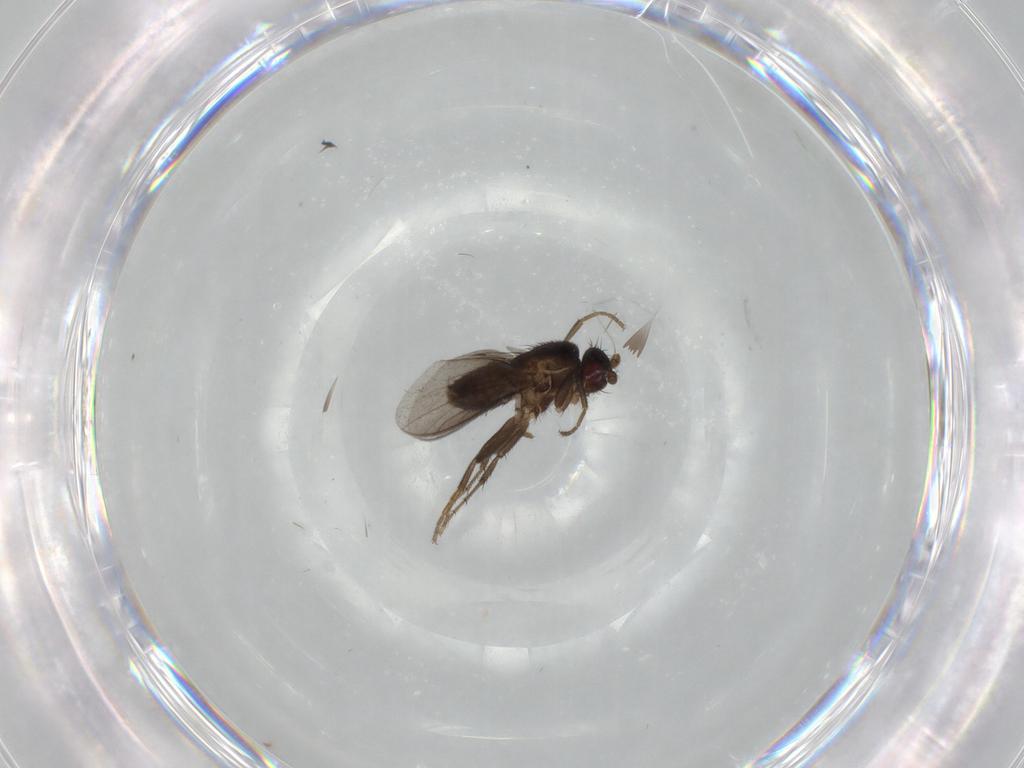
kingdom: Animalia
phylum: Arthropoda
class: Insecta
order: Diptera
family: Sphaeroceridae
